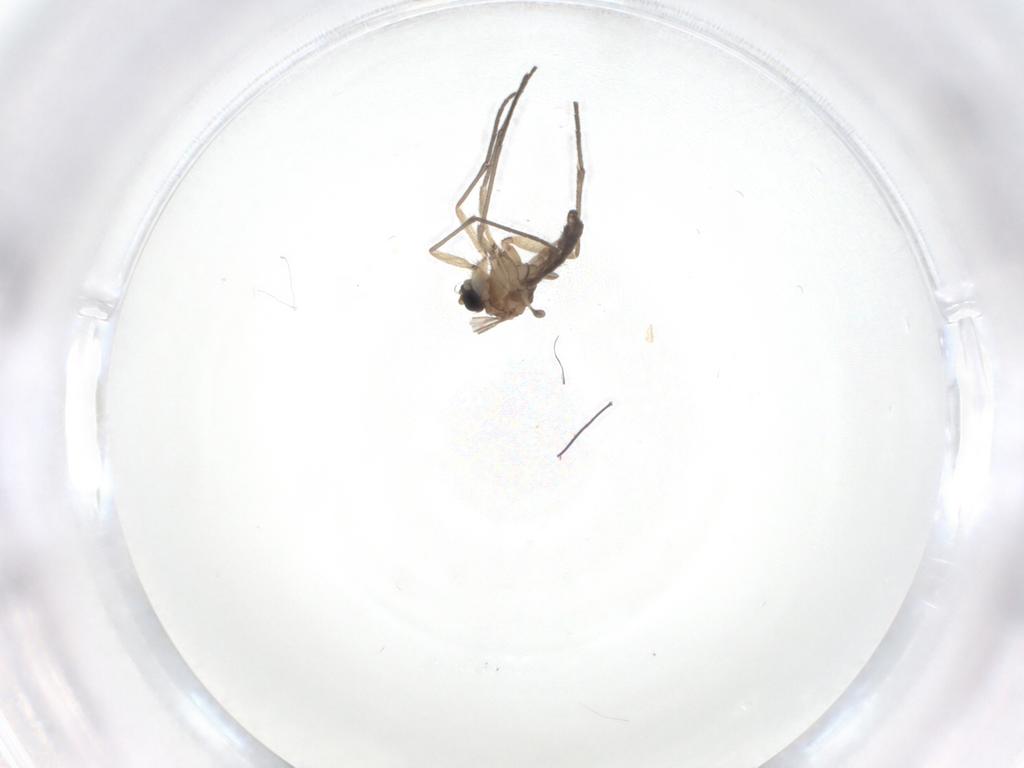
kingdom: Animalia
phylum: Arthropoda
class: Insecta
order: Diptera
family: Sciaridae
